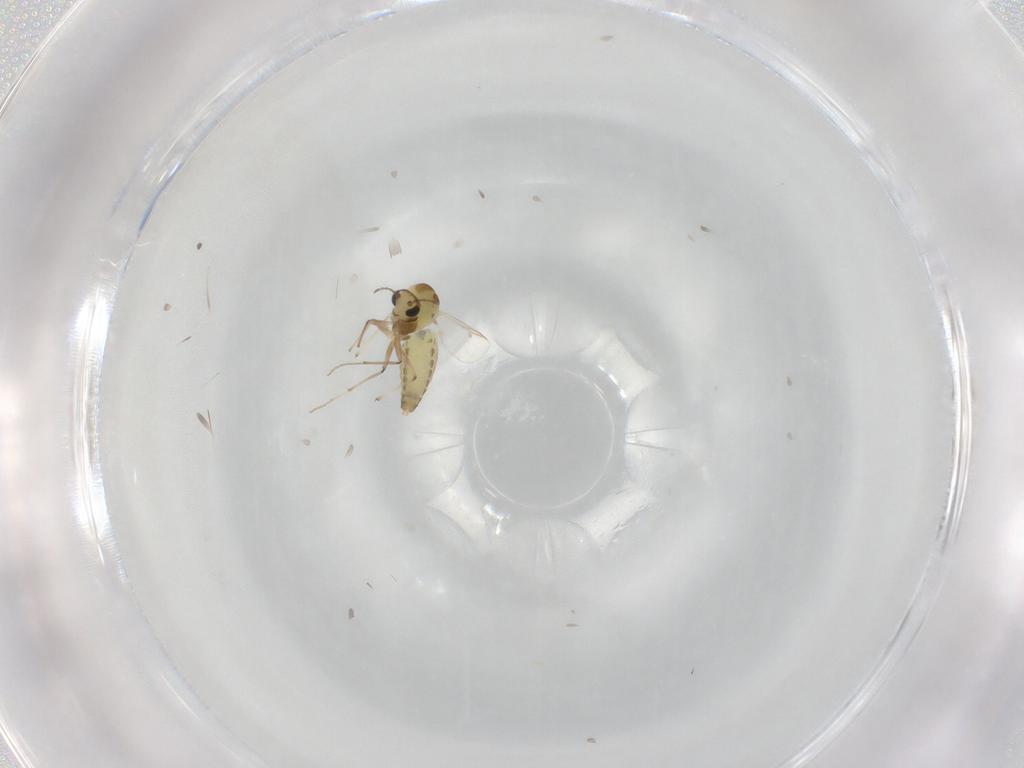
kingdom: Animalia
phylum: Arthropoda
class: Insecta
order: Diptera
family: Chironomidae
